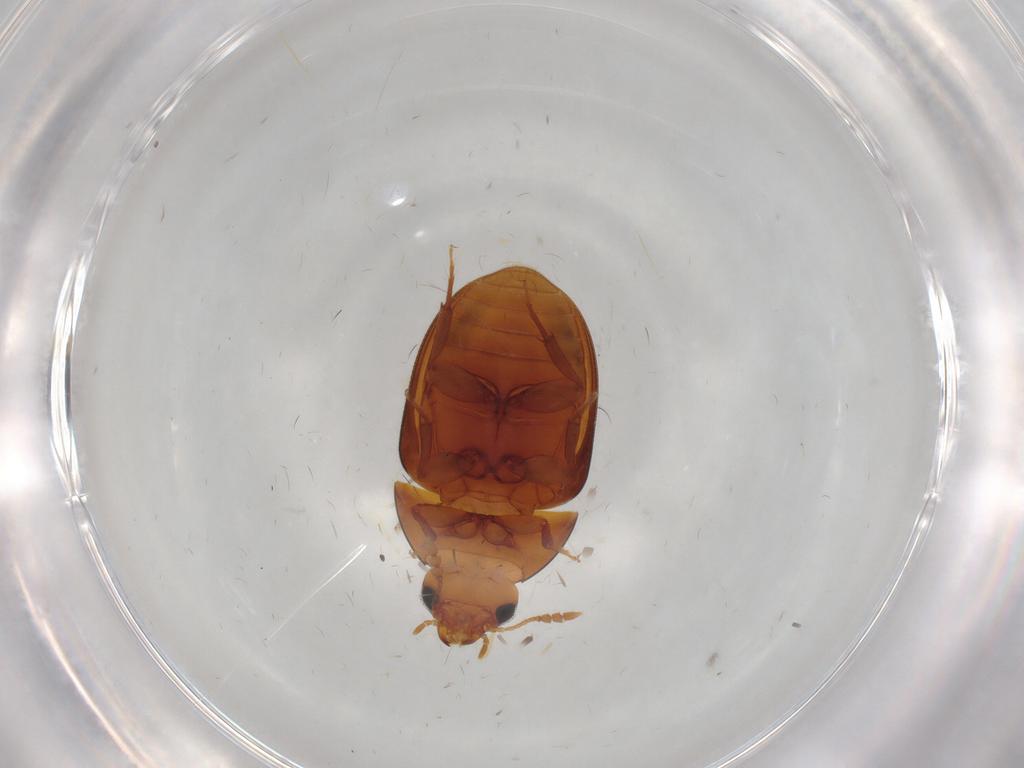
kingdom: Animalia
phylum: Arthropoda
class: Insecta
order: Coleoptera
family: Phalacridae
